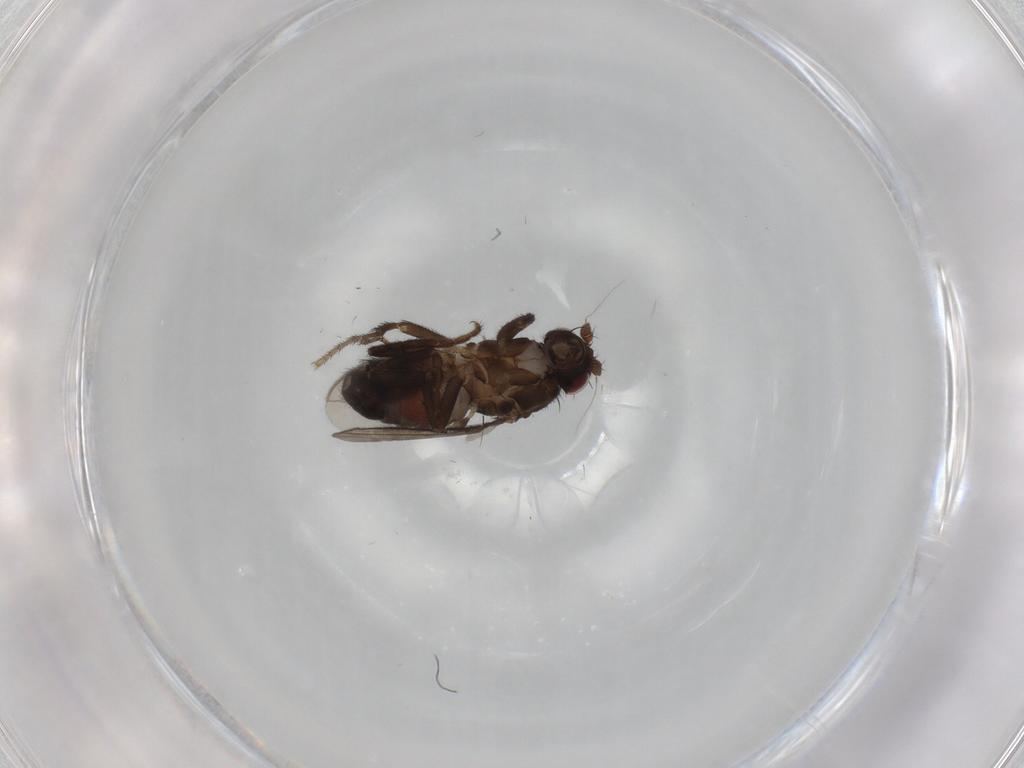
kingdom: Animalia
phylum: Arthropoda
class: Insecta
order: Diptera
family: Sphaeroceridae
